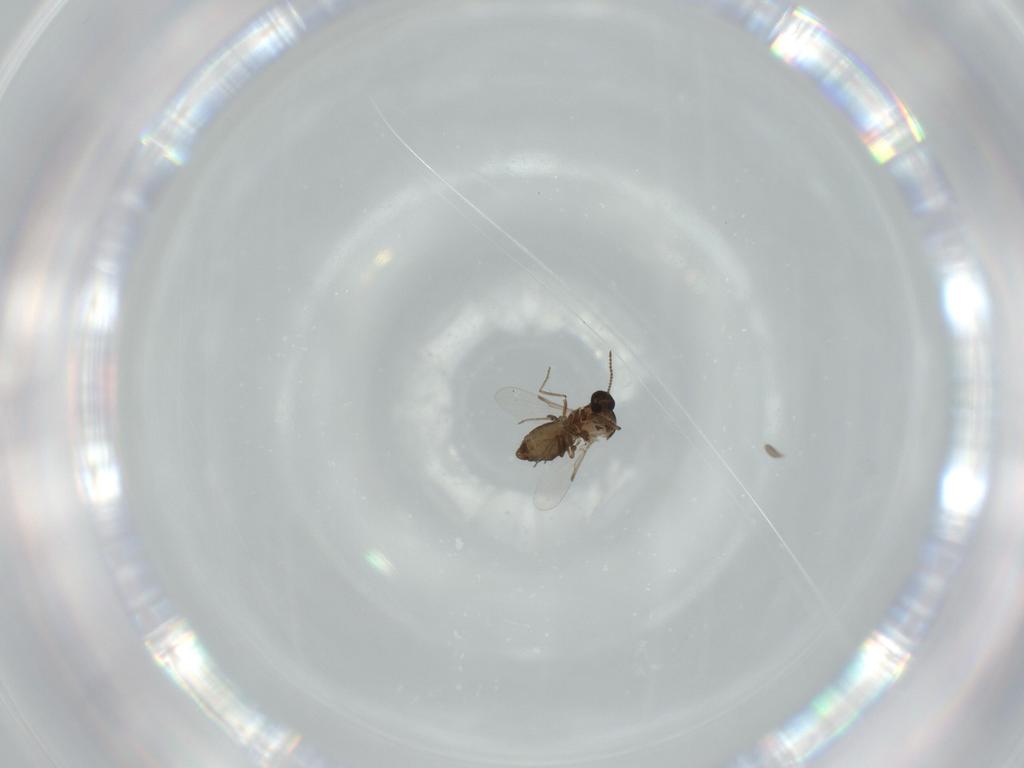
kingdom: Animalia
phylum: Arthropoda
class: Insecta
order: Diptera
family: Ceratopogonidae
